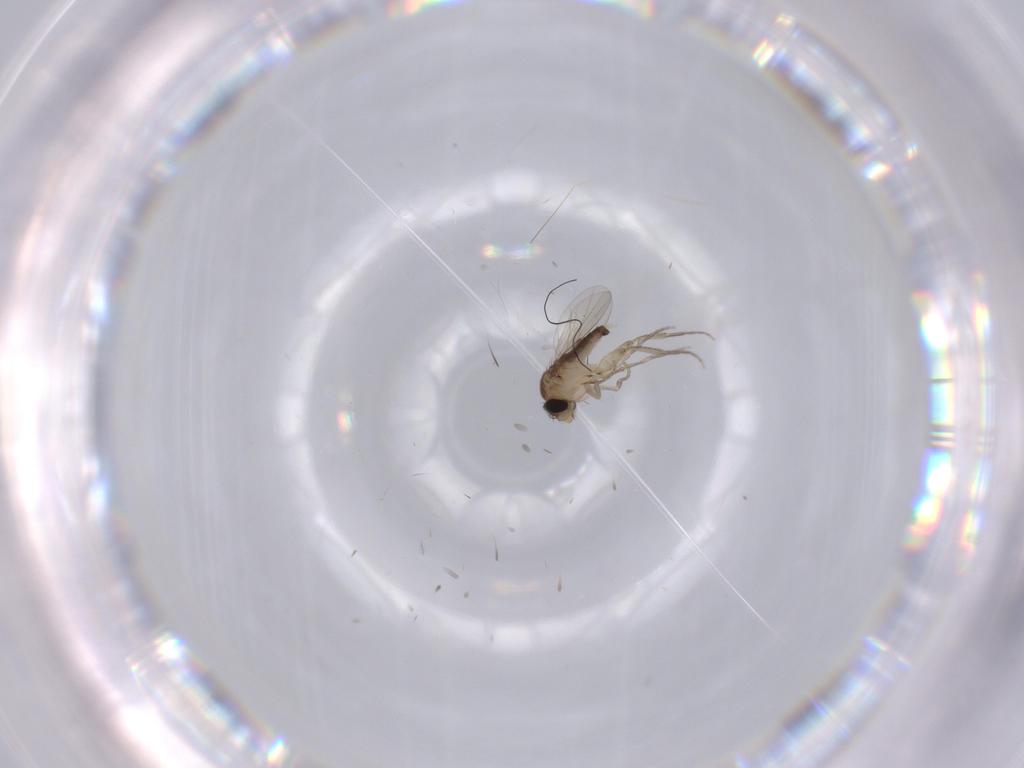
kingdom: Animalia
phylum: Arthropoda
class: Insecta
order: Diptera
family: Phoridae
